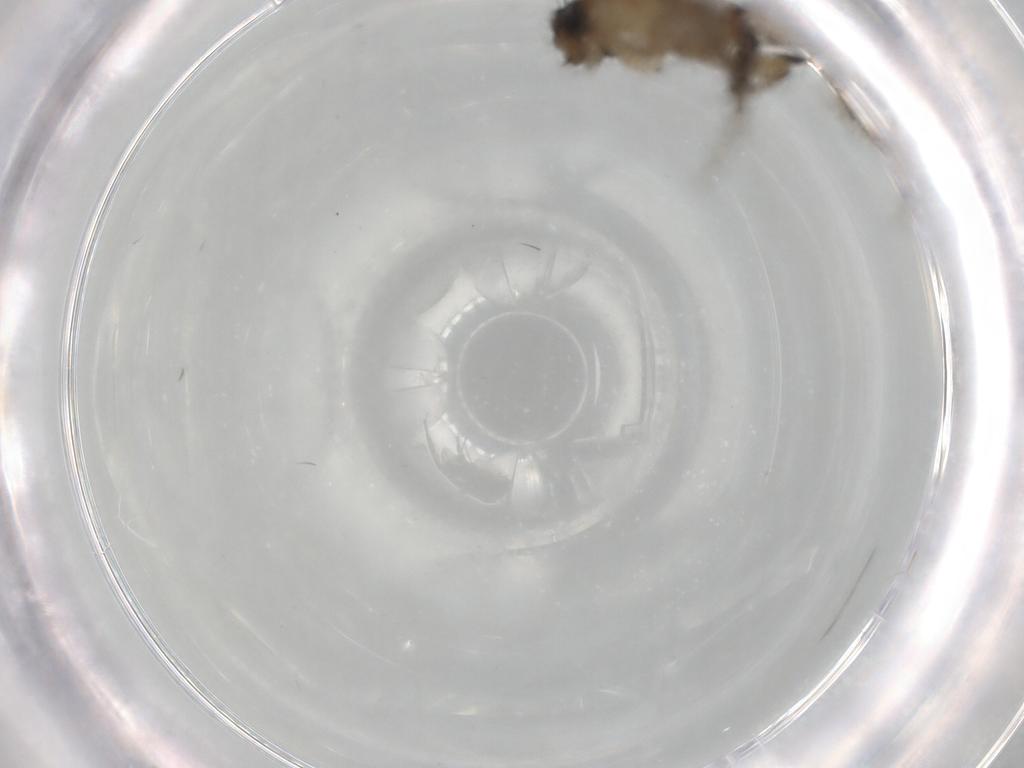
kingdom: Animalia
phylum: Arthropoda
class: Insecta
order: Diptera
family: Phoridae
